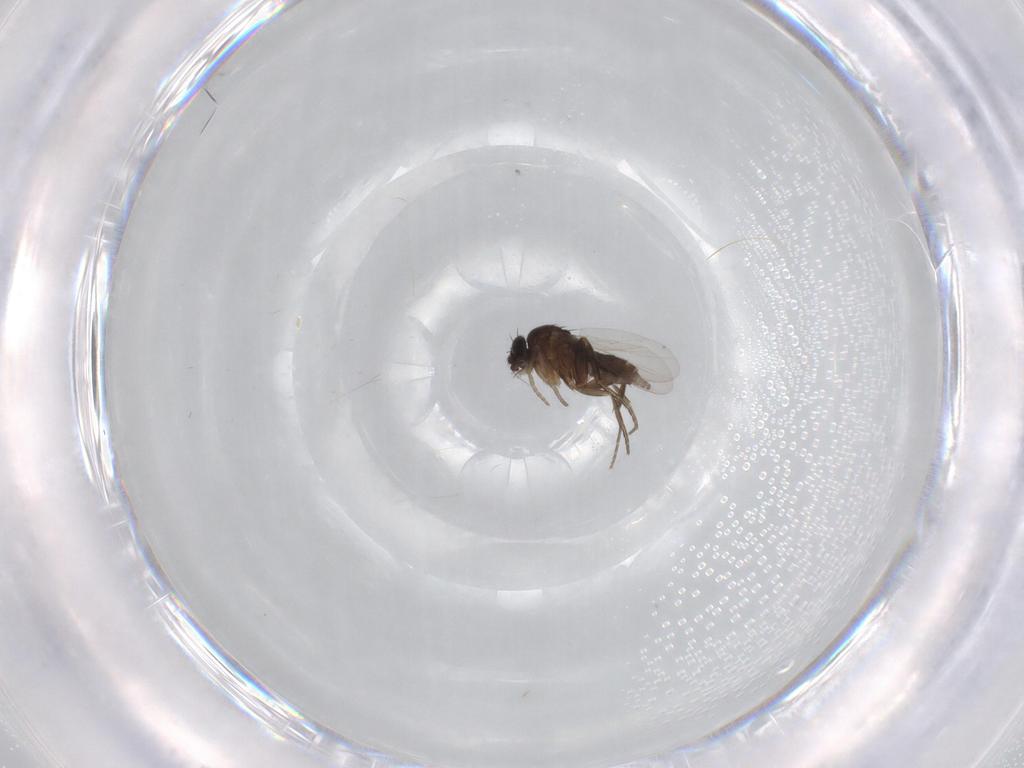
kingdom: Animalia
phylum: Arthropoda
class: Insecta
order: Diptera
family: Phoridae
